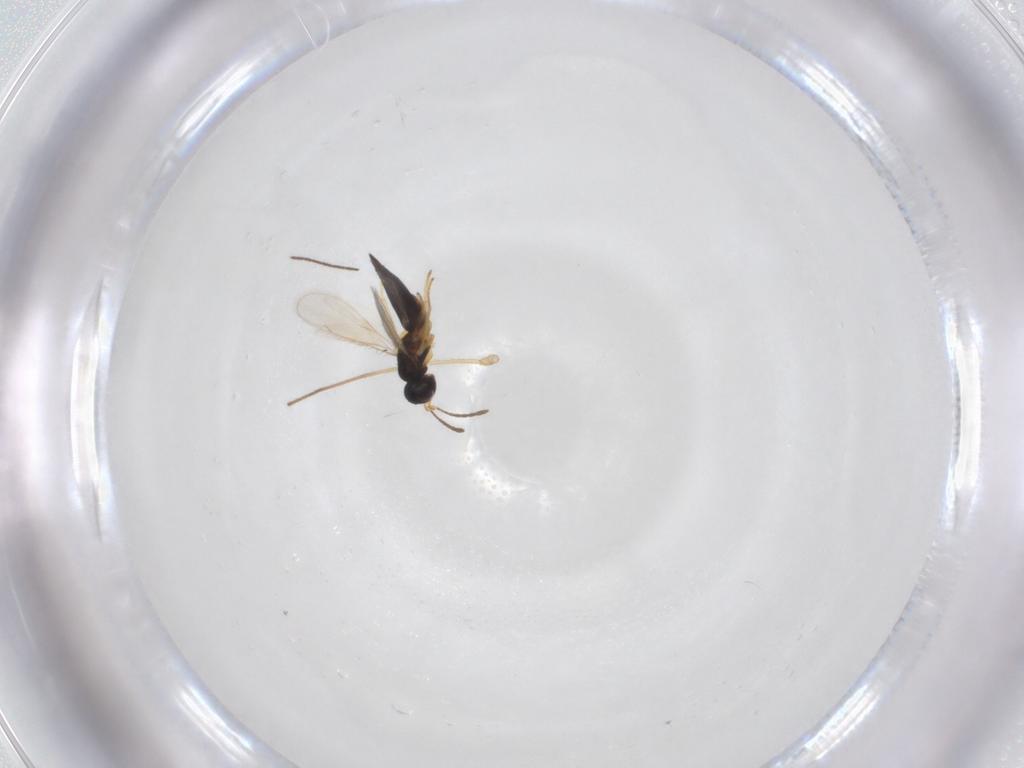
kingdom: Animalia
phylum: Arthropoda
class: Insecta
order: Psocodea
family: Psocidae
